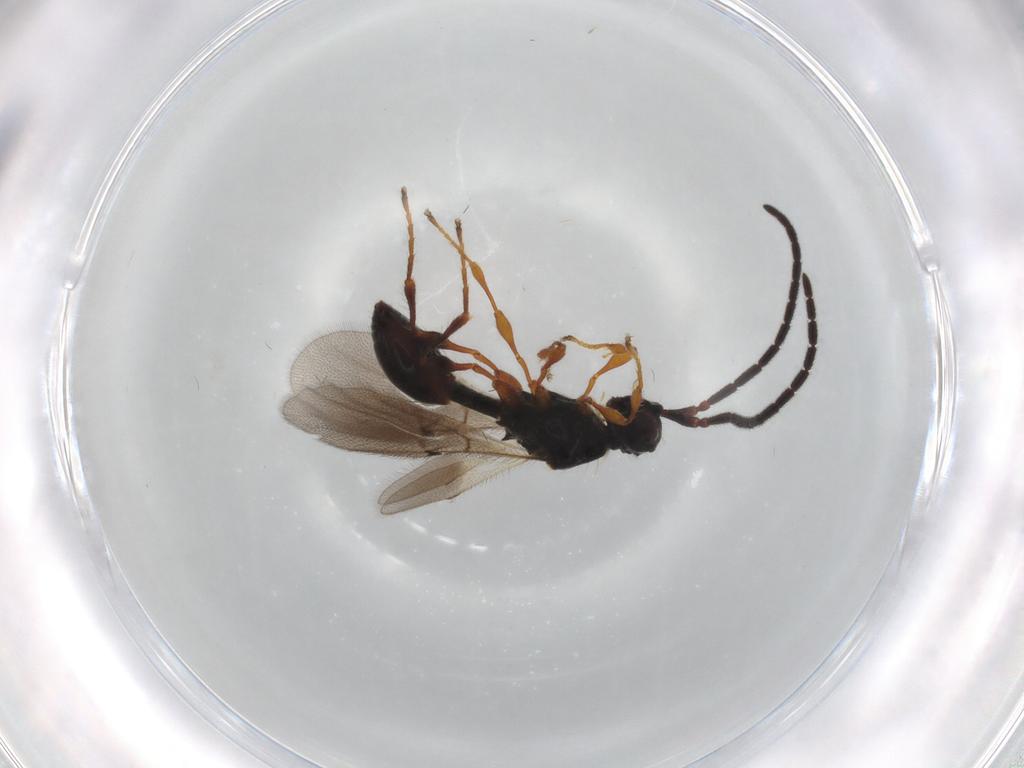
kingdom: Animalia
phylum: Arthropoda
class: Insecta
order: Hymenoptera
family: Diapriidae
